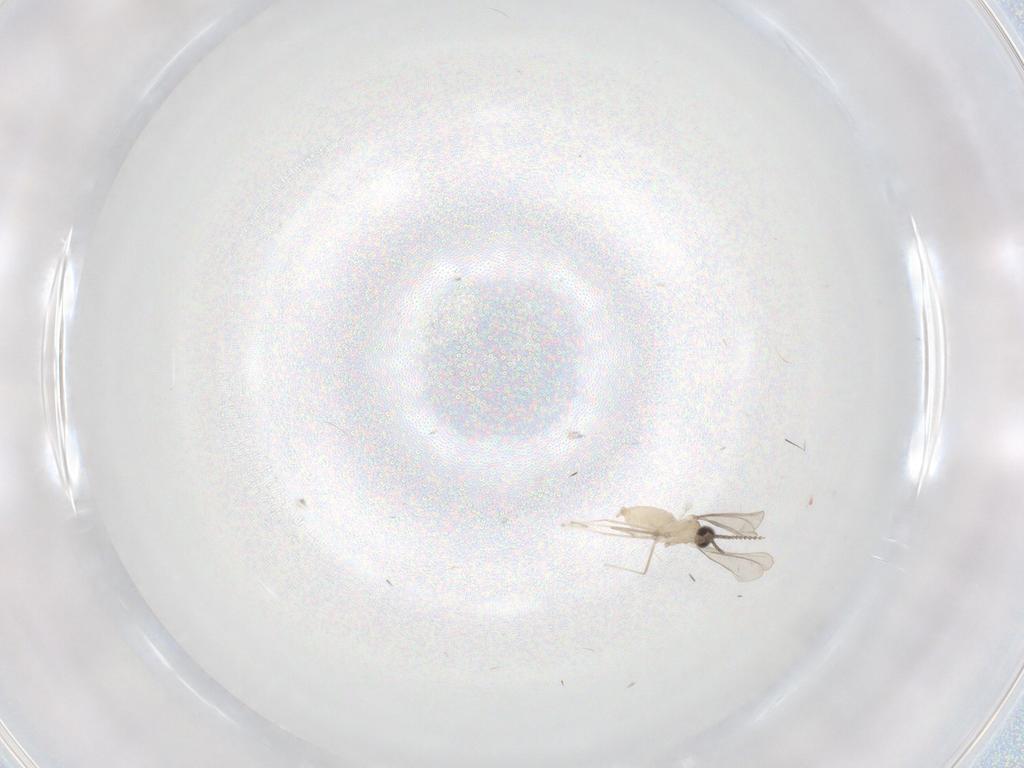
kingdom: Animalia
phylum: Arthropoda
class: Insecta
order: Diptera
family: Cecidomyiidae
